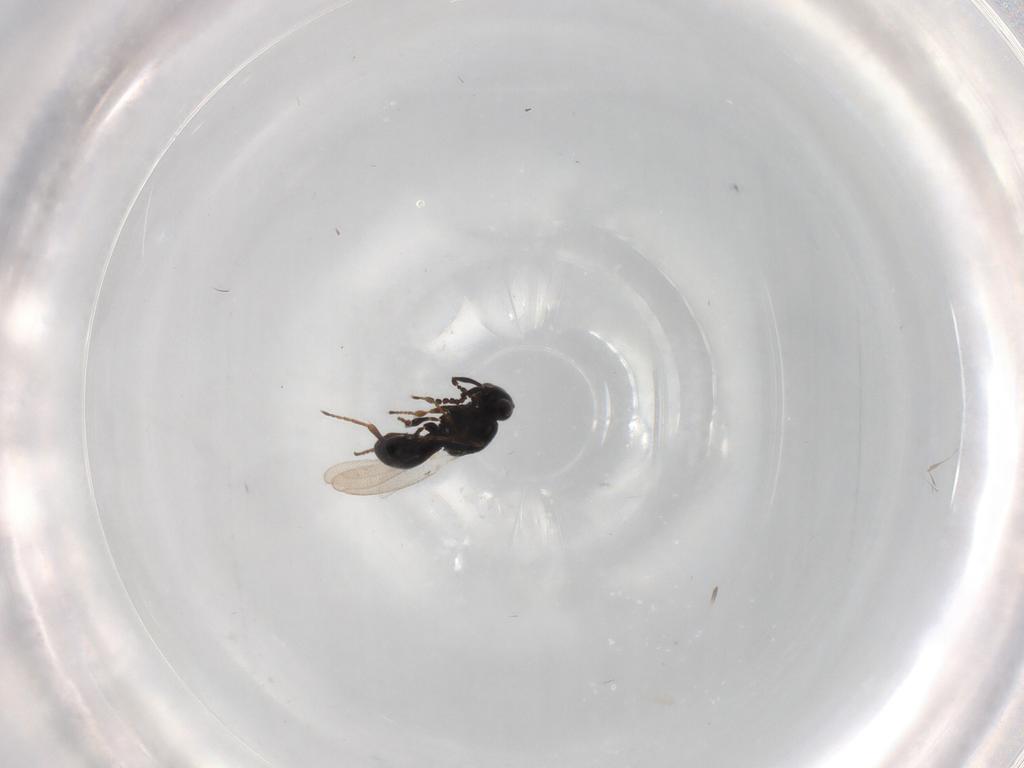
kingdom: Animalia
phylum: Arthropoda
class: Insecta
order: Hymenoptera
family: Platygastridae
